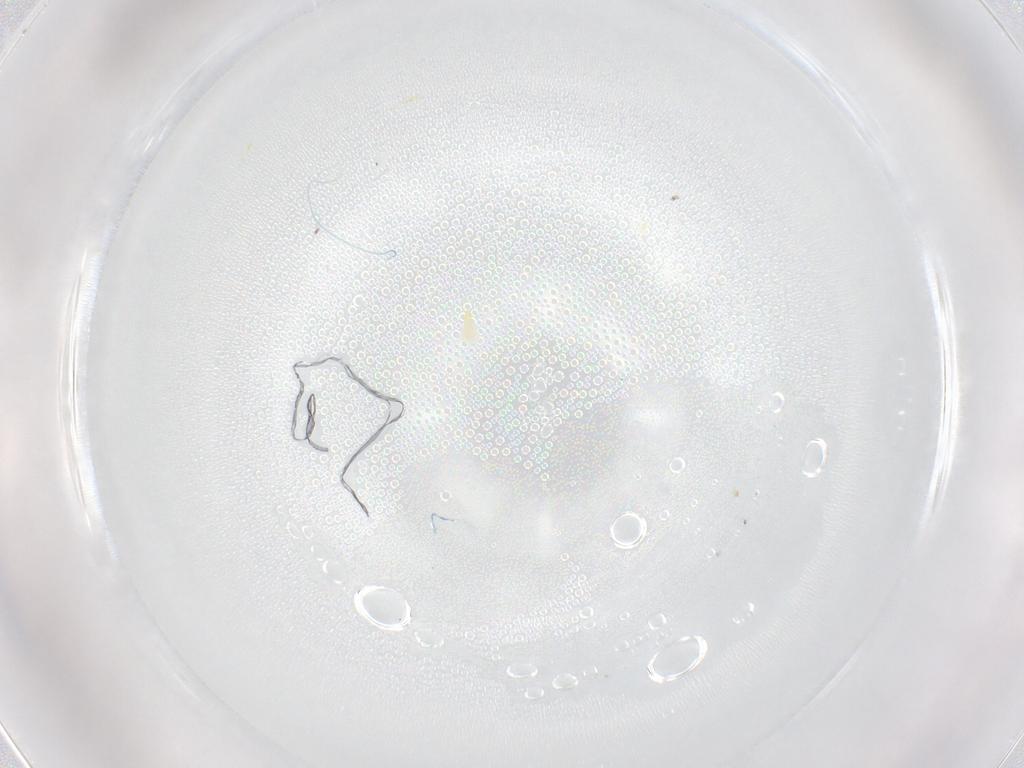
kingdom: Animalia
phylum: Arthropoda
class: Insecta
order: Hemiptera
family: Aleyrodidae
